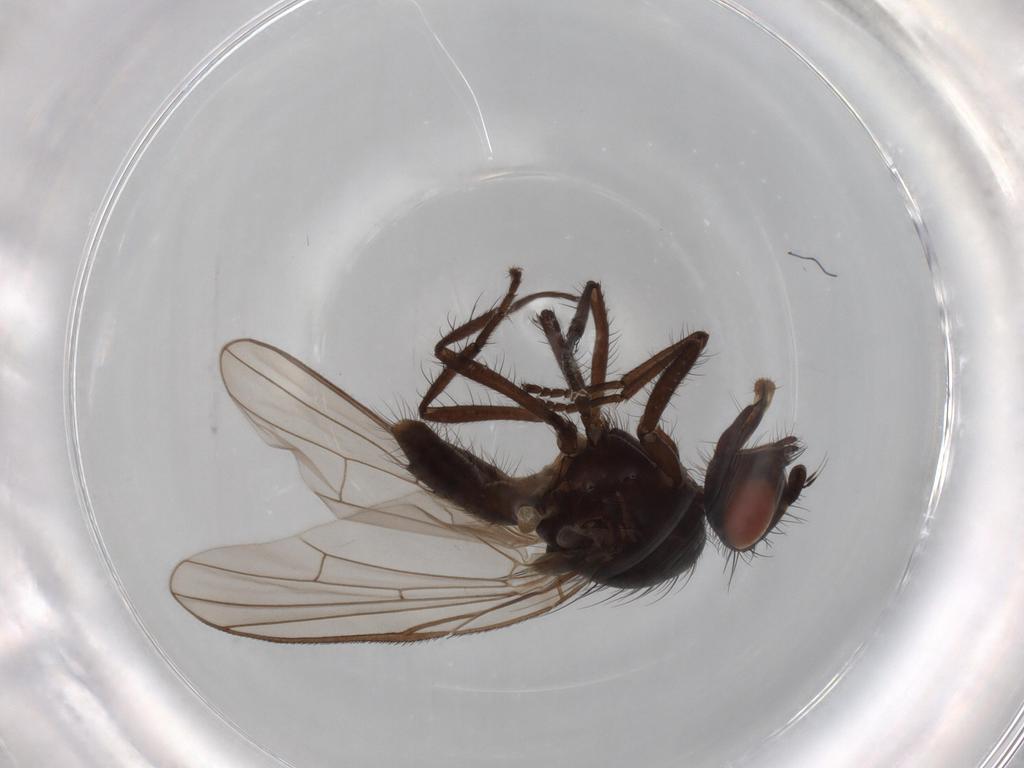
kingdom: Animalia
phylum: Arthropoda
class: Insecta
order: Diptera
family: Anthomyiidae
